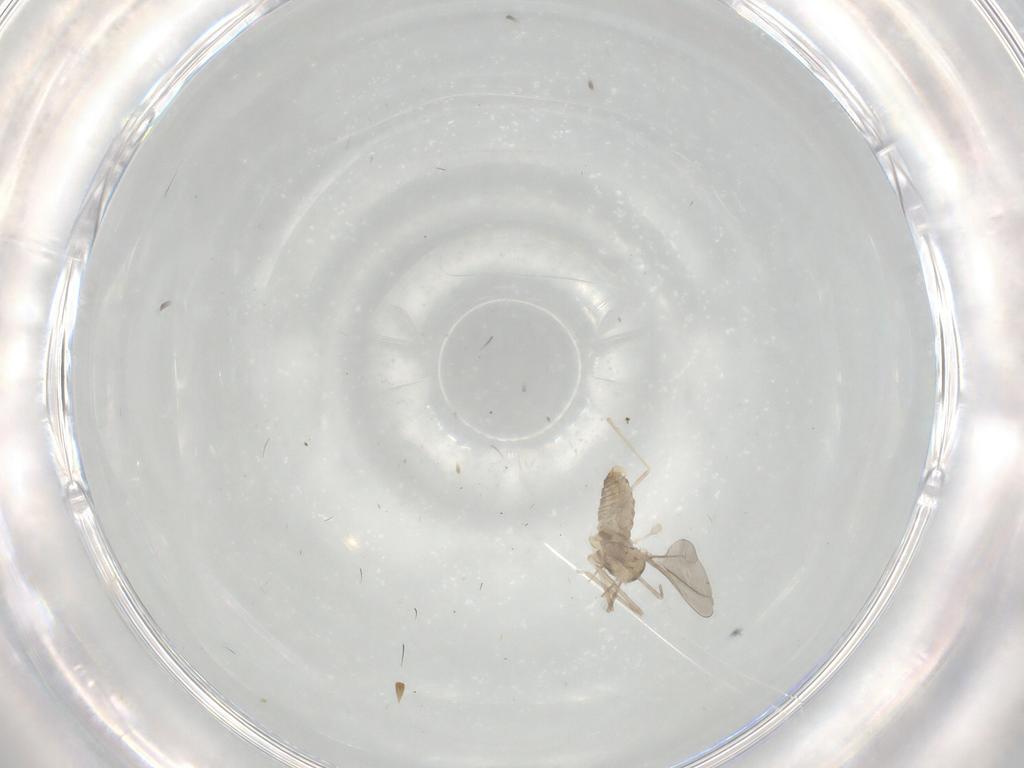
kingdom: Animalia
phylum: Arthropoda
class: Insecta
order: Diptera
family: Cecidomyiidae
